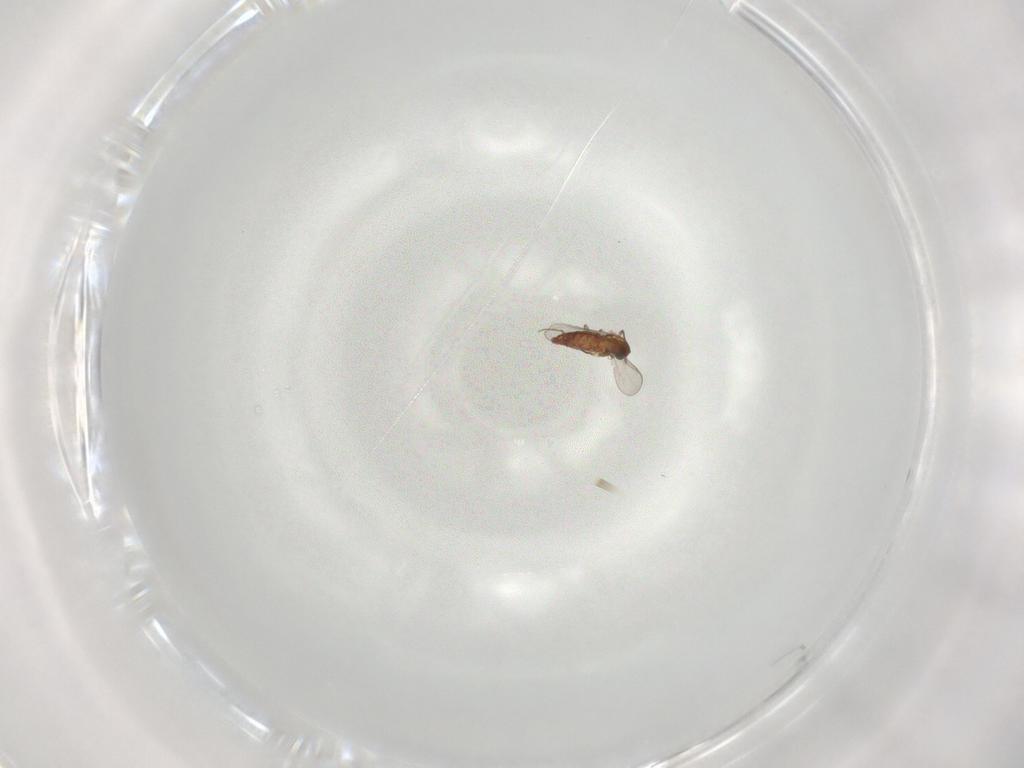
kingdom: Animalia
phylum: Arthropoda
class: Insecta
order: Diptera
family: Chironomidae
